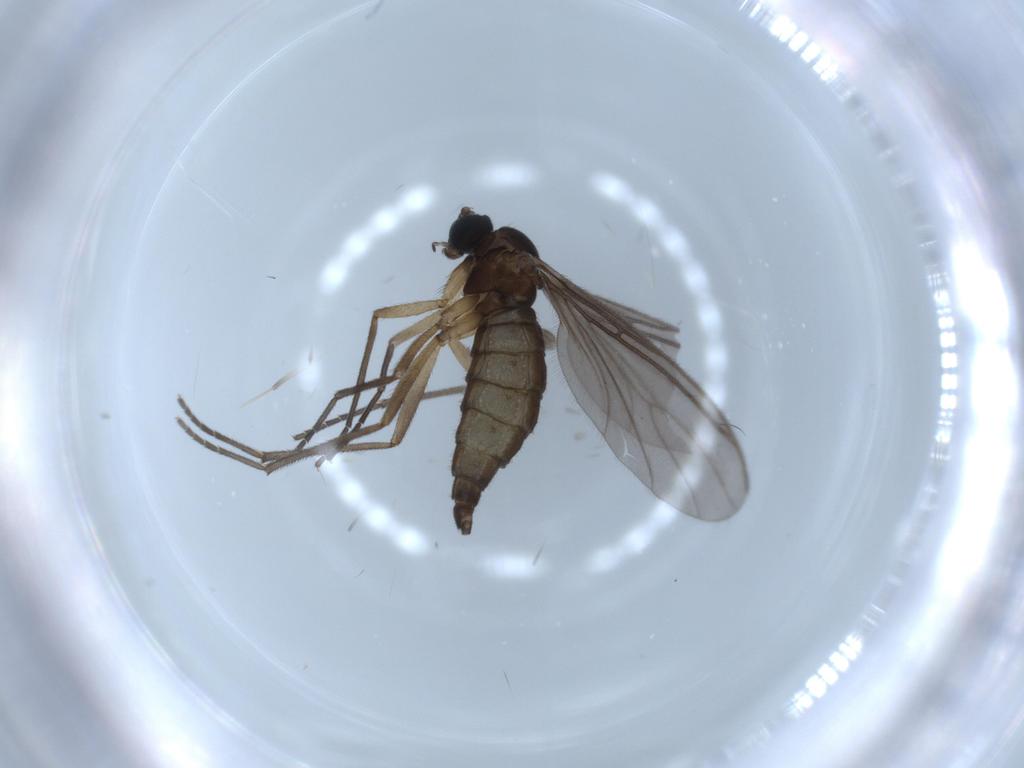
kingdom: Animalia
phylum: Arthropoda
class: Insecta
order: Diptera
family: Sciaridae
